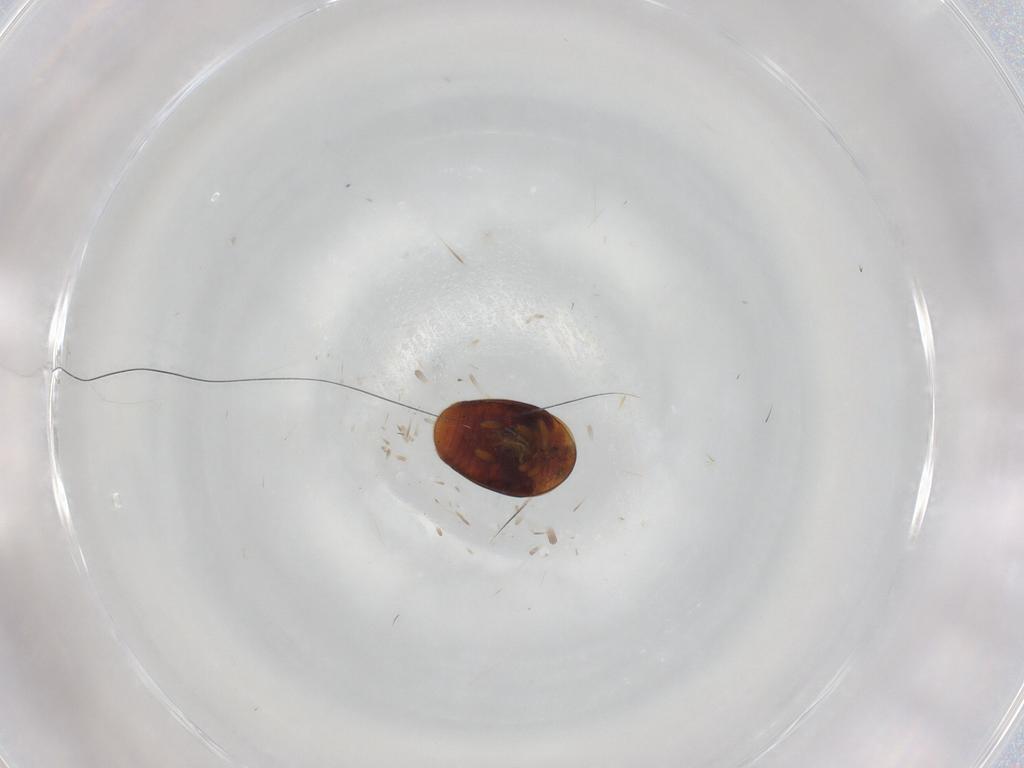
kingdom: Animalia
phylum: Arthropoda
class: Insecta
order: Coleoptera
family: Corylophidae
